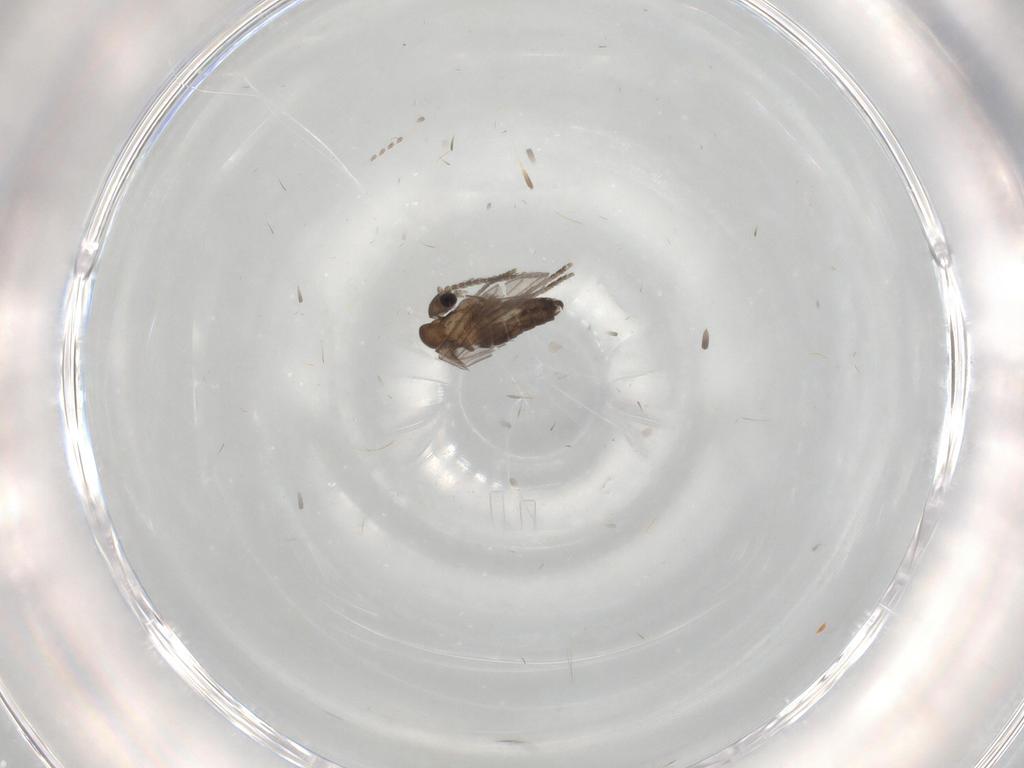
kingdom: Animalia
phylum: Arthropoda
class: Insecta
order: Diptera
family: Psychodidae
